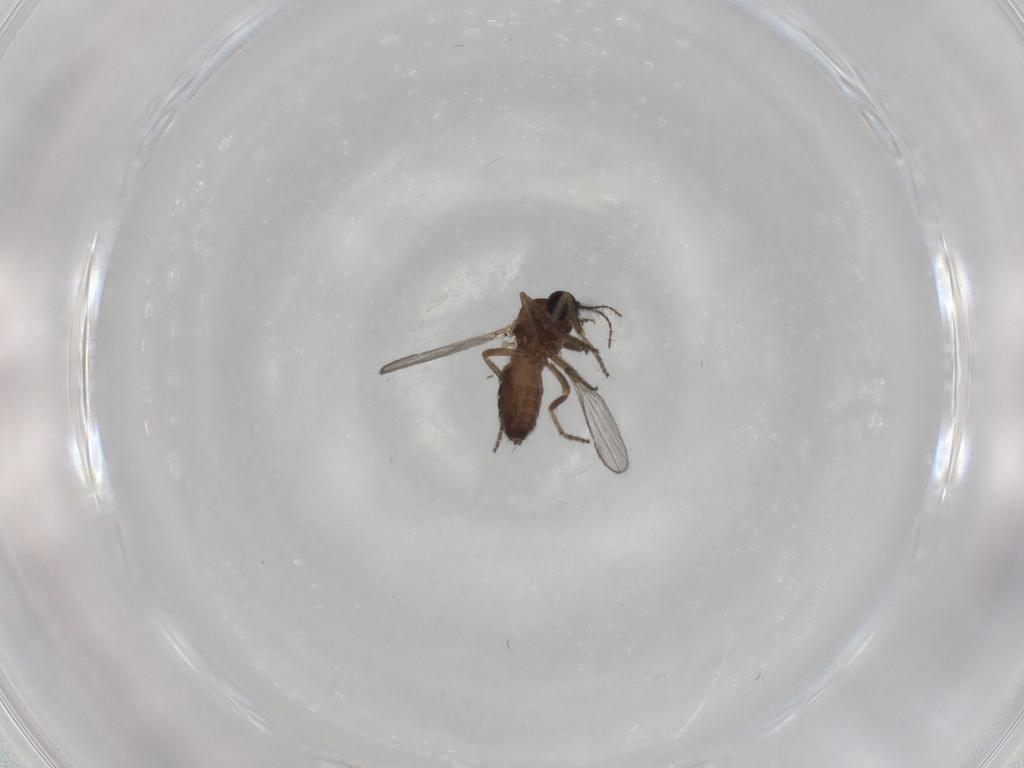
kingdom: Animalia
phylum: Arthropoda
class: Insecta
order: Diptera
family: Ceratopogonidae
